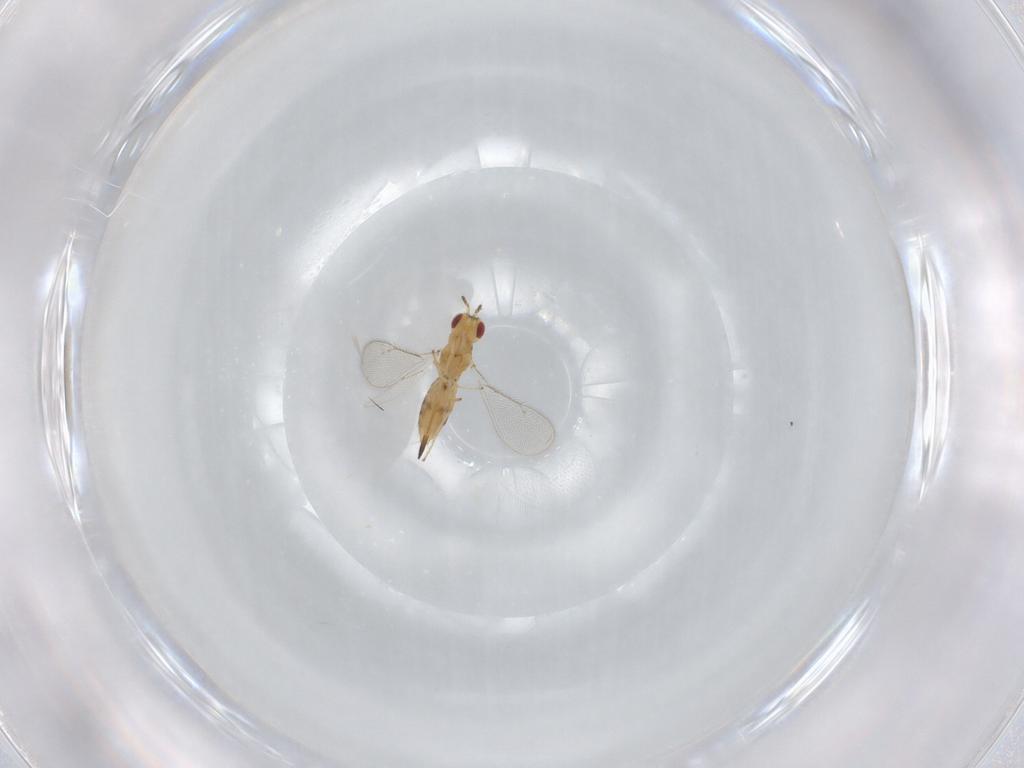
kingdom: Animalia
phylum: Arthropoda
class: Insecta
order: Hymenoptera
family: Eulophidae
